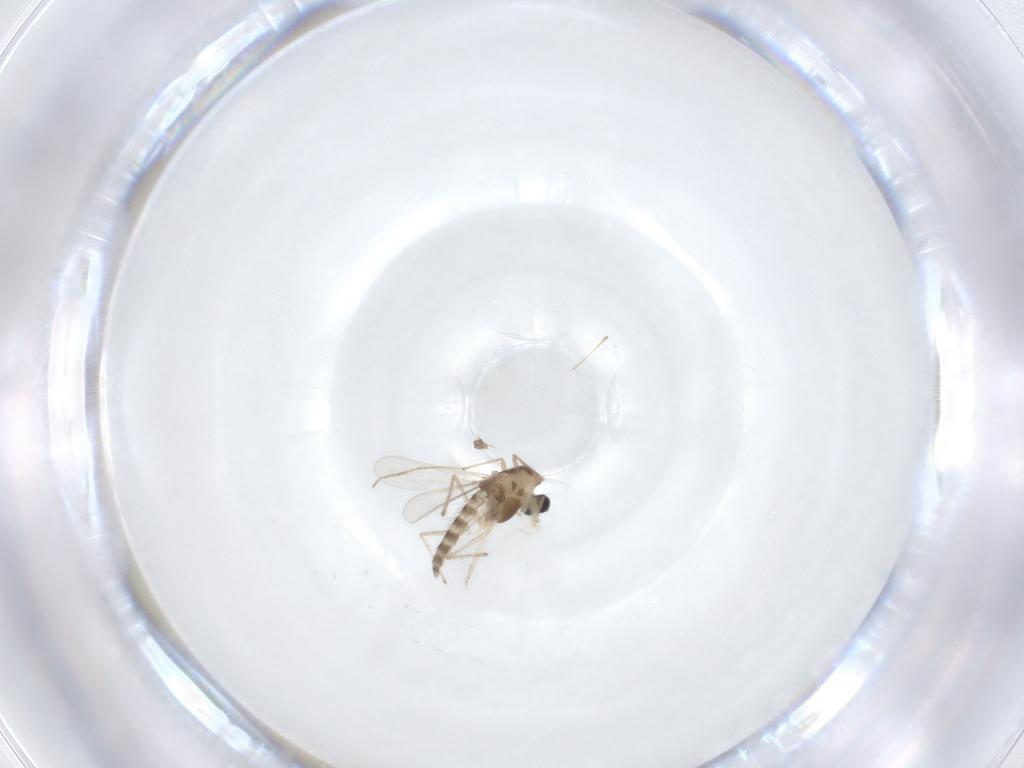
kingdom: Animalia
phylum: Arthropoda
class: Insecta
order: Diptera
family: Chironomidae
